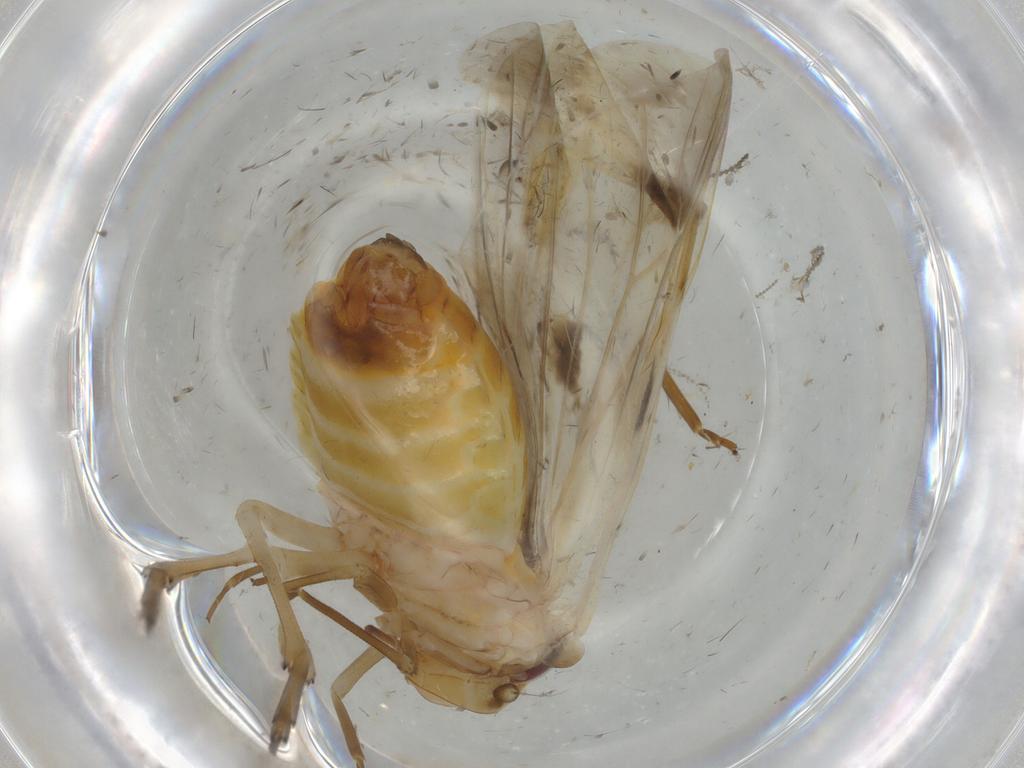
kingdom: Animalia
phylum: Arthropoda
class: Insecta
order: Hemiptera
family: Achilidae
